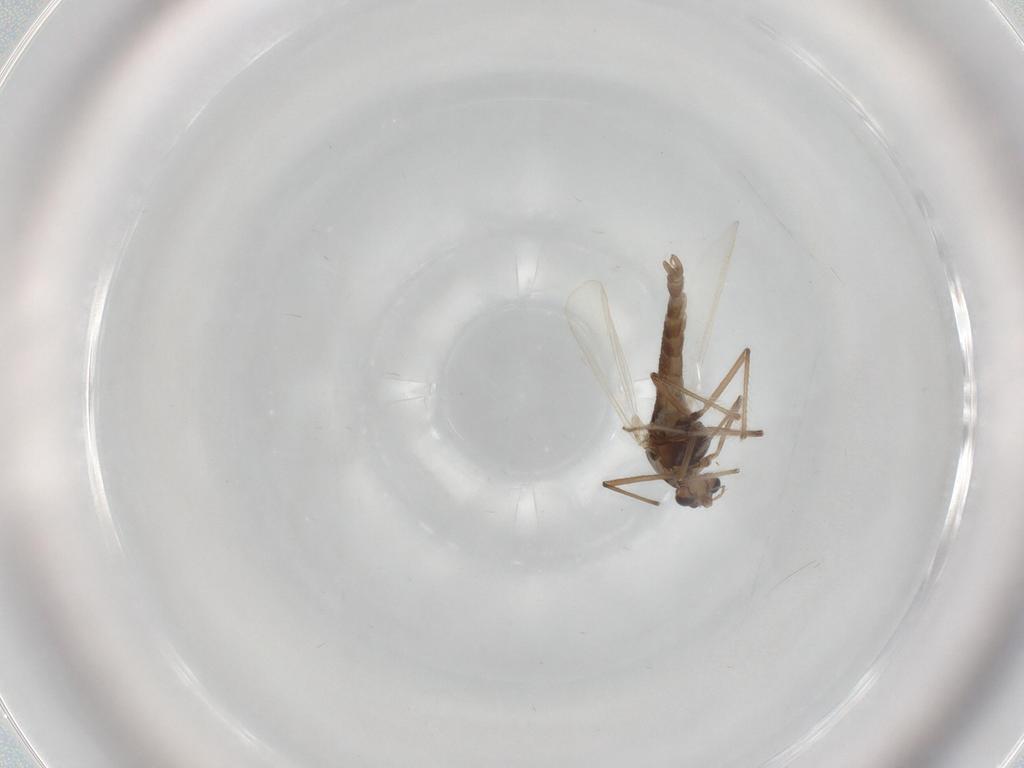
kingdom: Animalia
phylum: Arthropoda
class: Insecta
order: Diptera
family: Chironomidae
